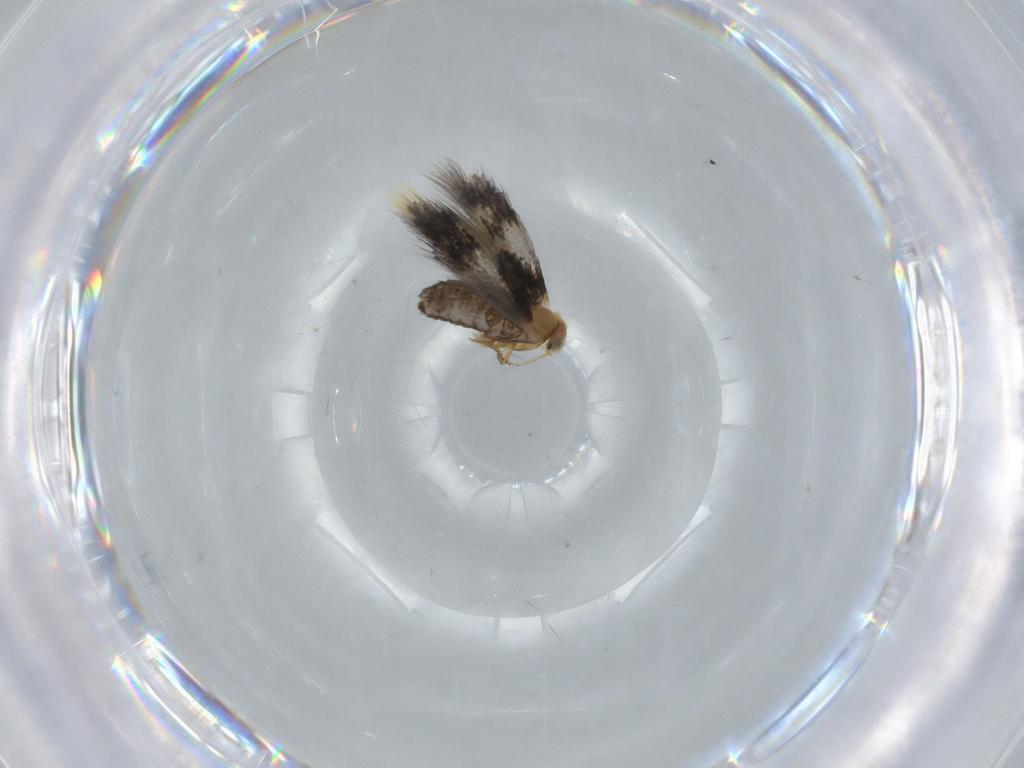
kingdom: Animalia
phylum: Arthropoda
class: Insecta
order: Lepidoptera
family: Nepticulidae
